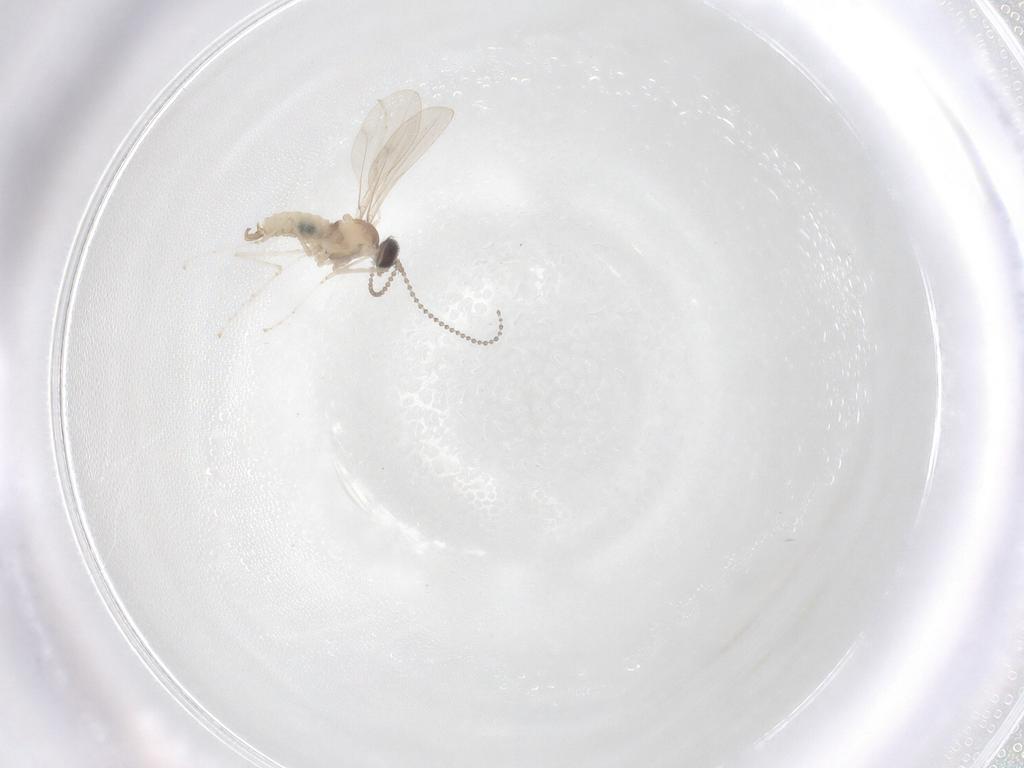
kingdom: Animalia
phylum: Arthropoda
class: Insecta
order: Diptera
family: Cecidomyiidae
